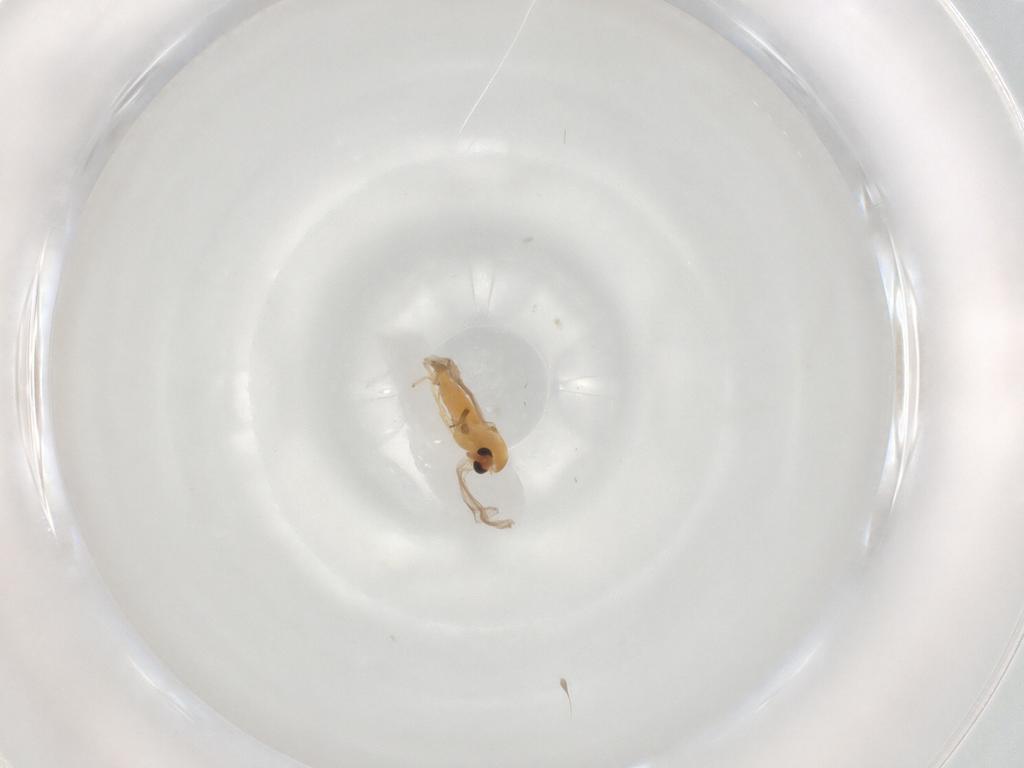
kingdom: Animalia
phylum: Arthropoda
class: Insecta
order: Diptera
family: Chironomidae
